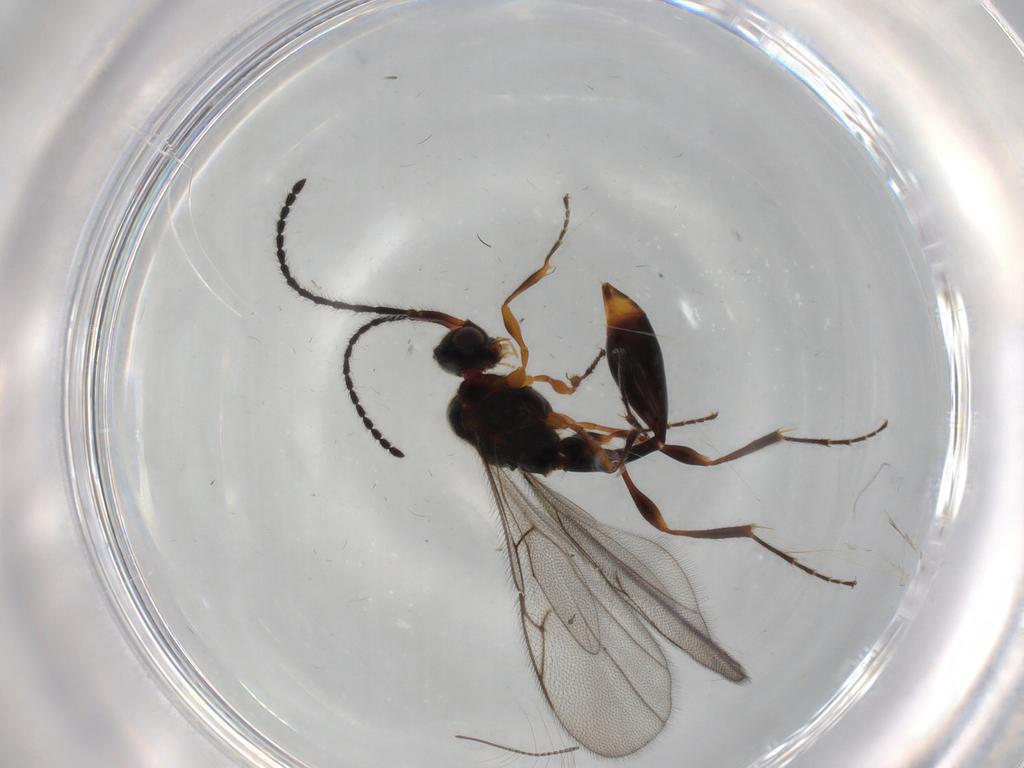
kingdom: Animalia
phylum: Arthropoda
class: Insecta
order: Hymenoptera
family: Diapriidae
